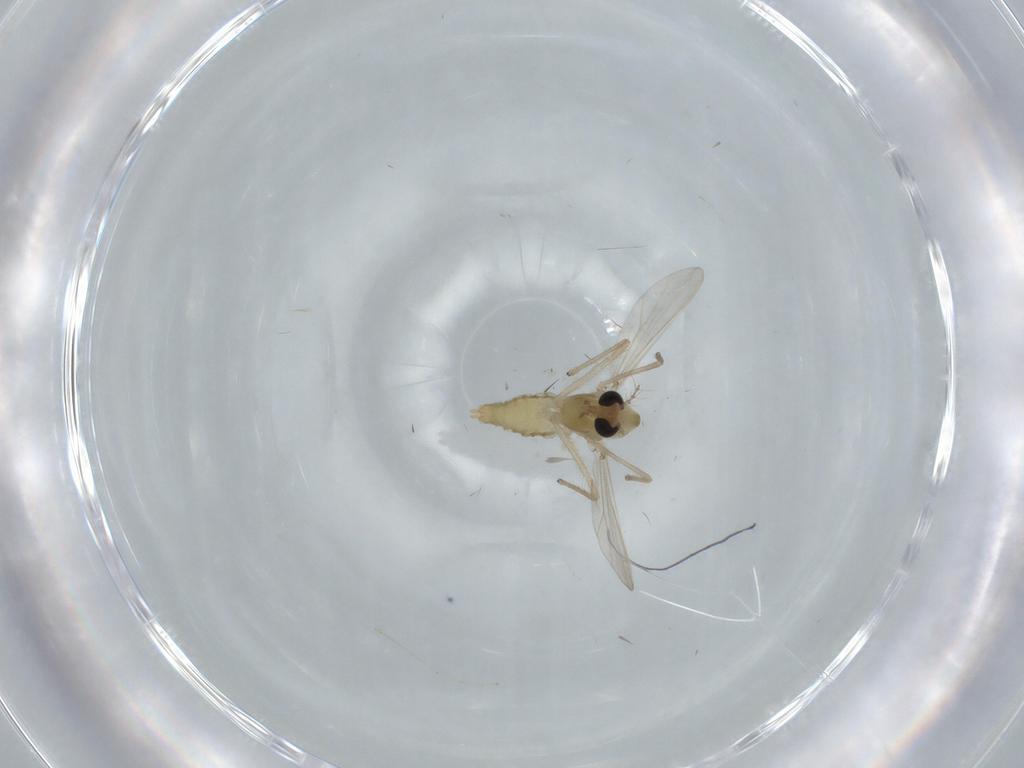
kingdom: Animalia
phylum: Arthropoda
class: Insecta
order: Diptera
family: Chironomidae
